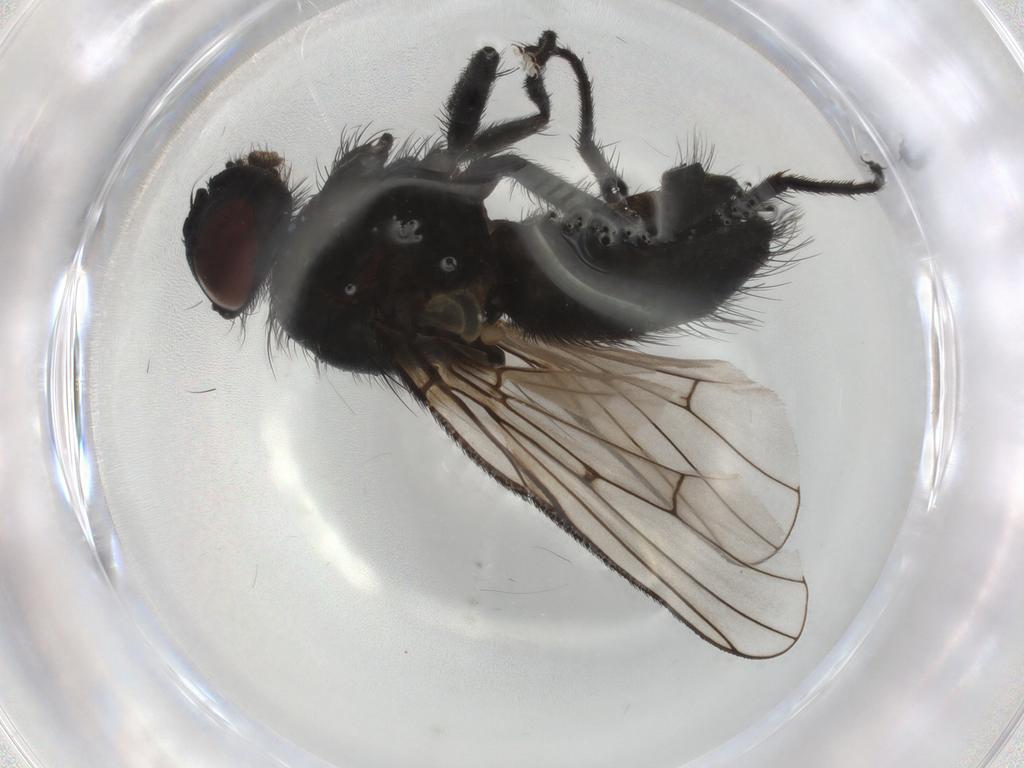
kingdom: Animalia
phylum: Arthropoda
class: Insecta
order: Diptera
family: Muscidae
